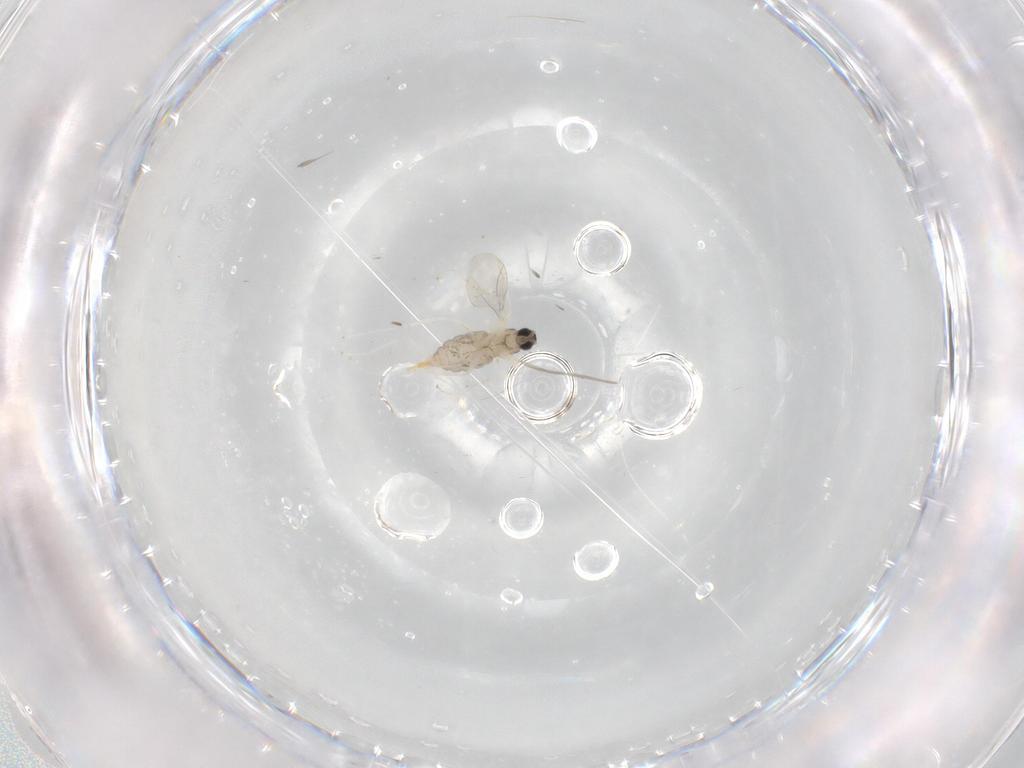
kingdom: Animalia
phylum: Arthropoda
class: Insecta
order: Diptera
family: Cecidomyiidae
